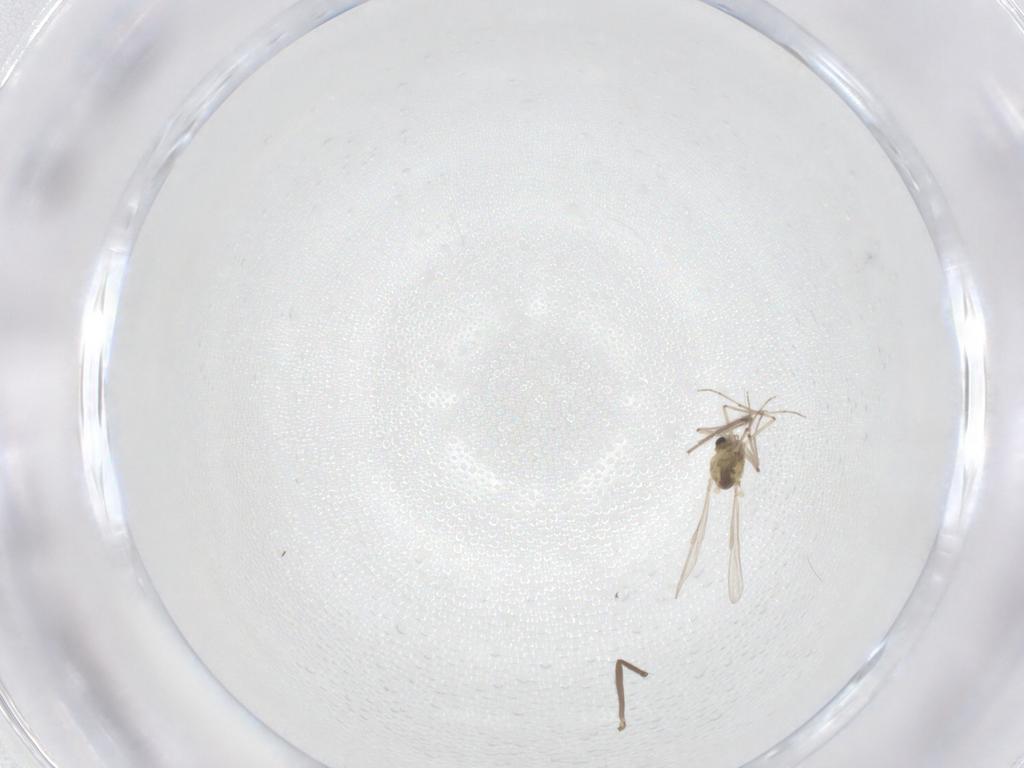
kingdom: Animalia
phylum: Arthropoda
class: Insecta
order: Diptera
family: Chironomidae
